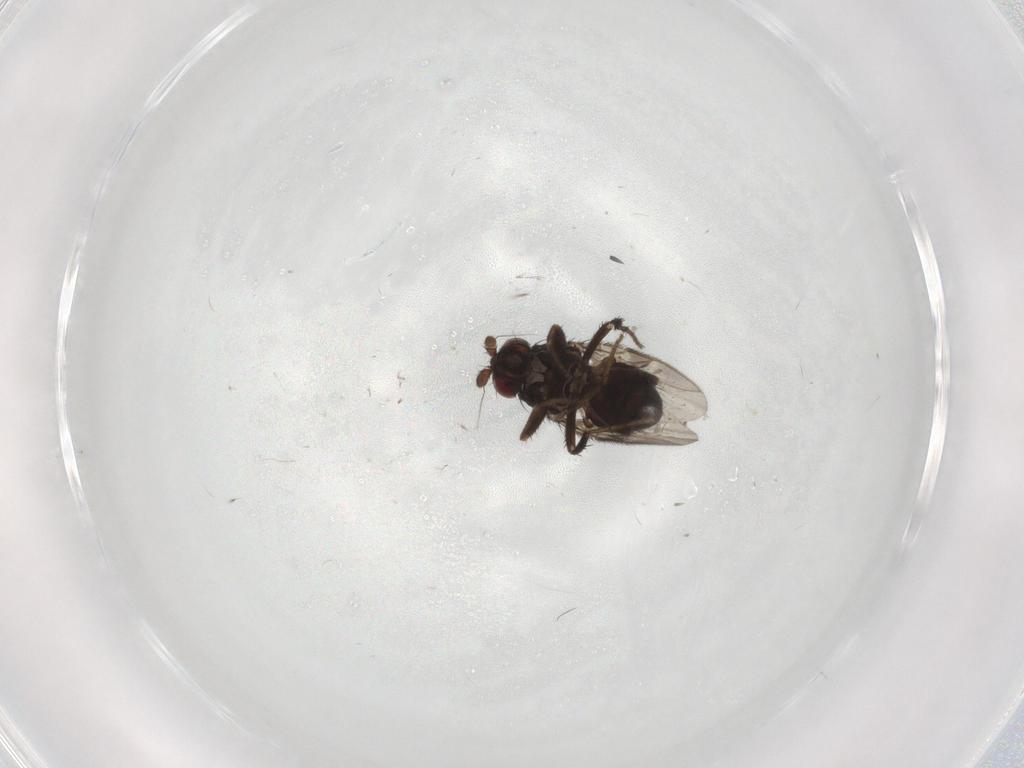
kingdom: Animalia
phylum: Arthropoda
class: Insecta
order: Diptera
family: Sphaeroceridae
